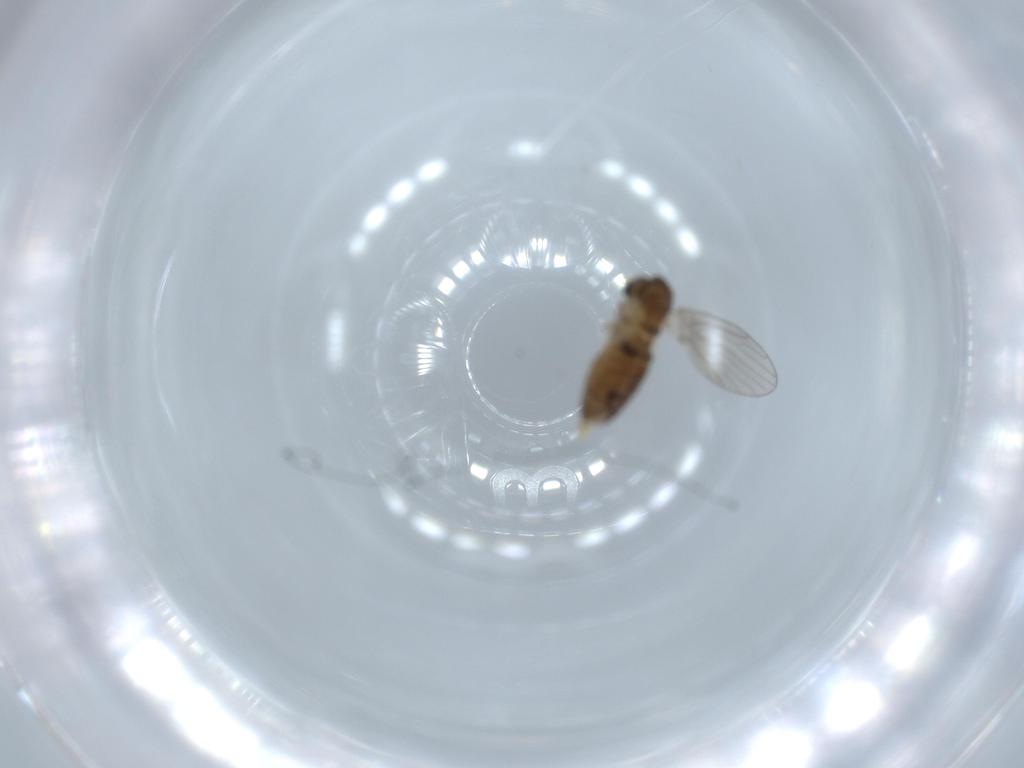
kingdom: Animalia
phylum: Arthropoda
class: Insecta
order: Diptera
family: Psychodidae
